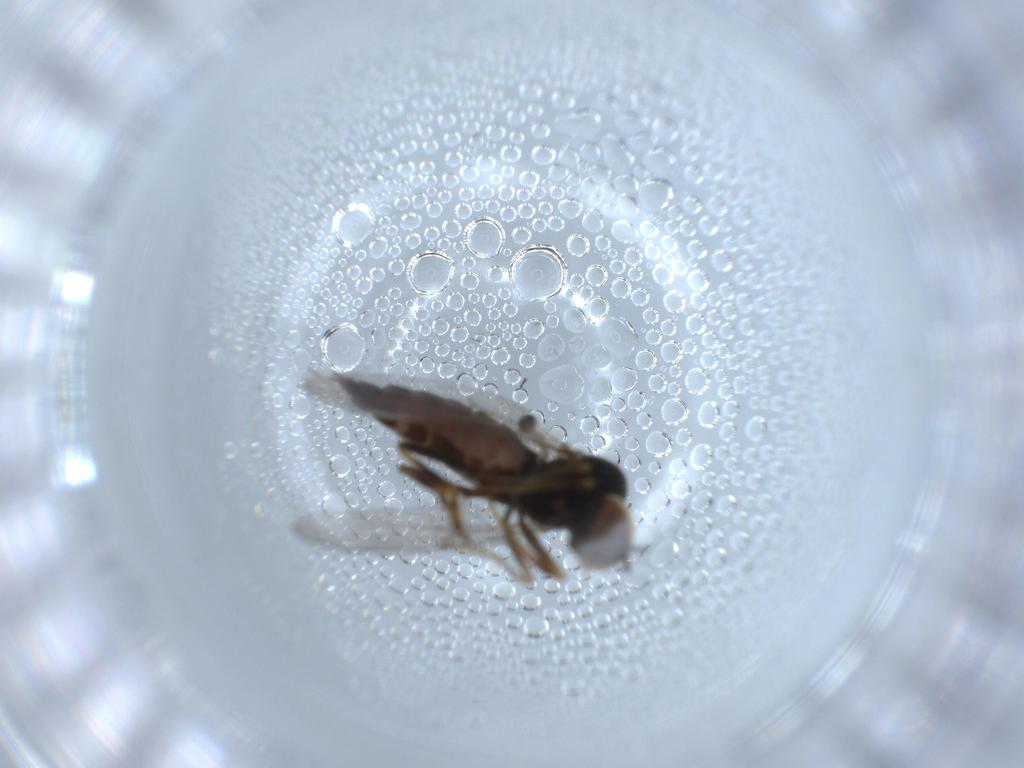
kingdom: Animalia
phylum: Arthropoda
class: Insecta
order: Diptera
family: Hybotidae
